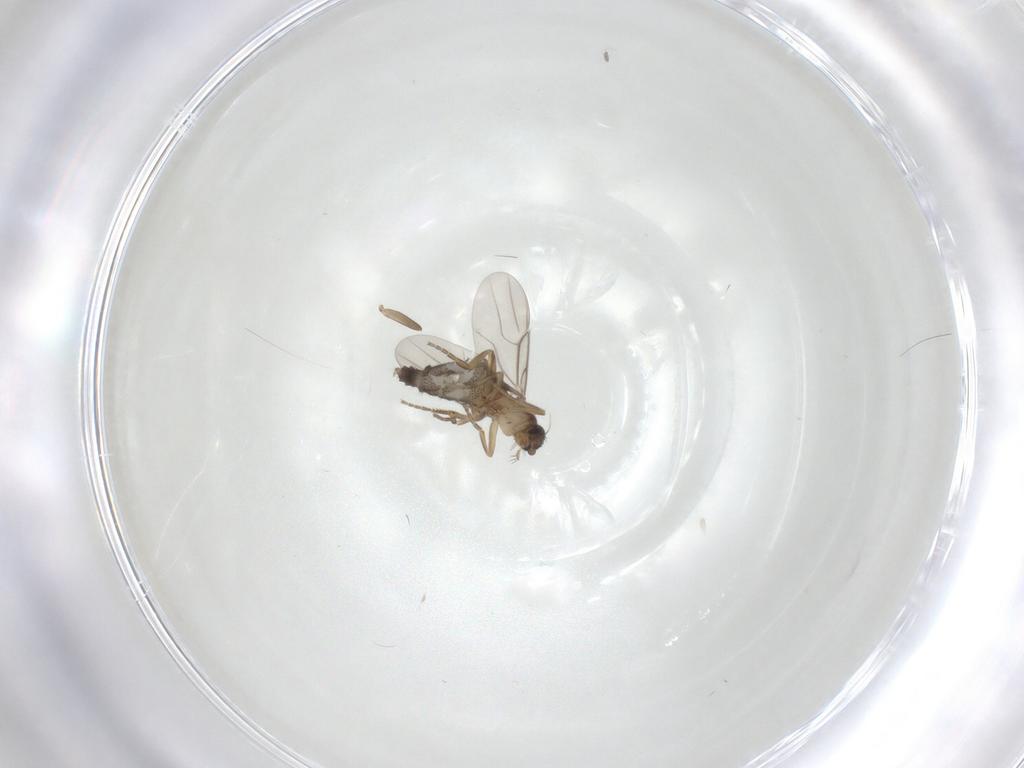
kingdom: Animalia
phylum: Arthropoda
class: Insecta
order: Diptera
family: Phoridae
